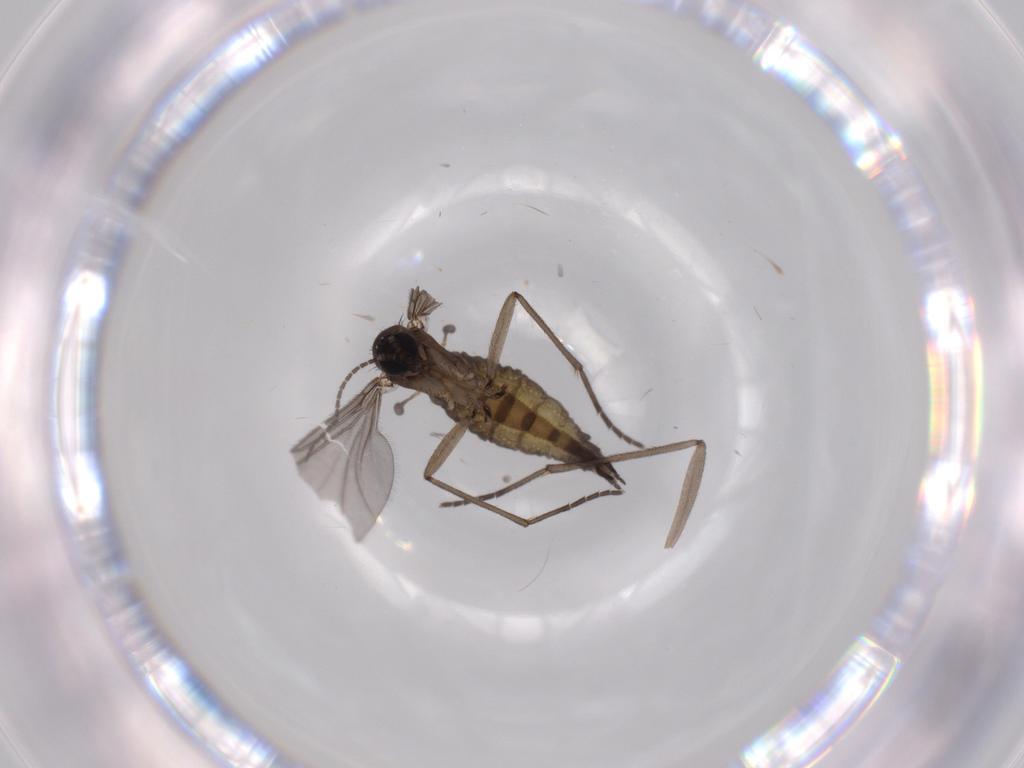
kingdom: Animalia
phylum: Arthropoda
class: Insecta
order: Diptera
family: Sciaridae
